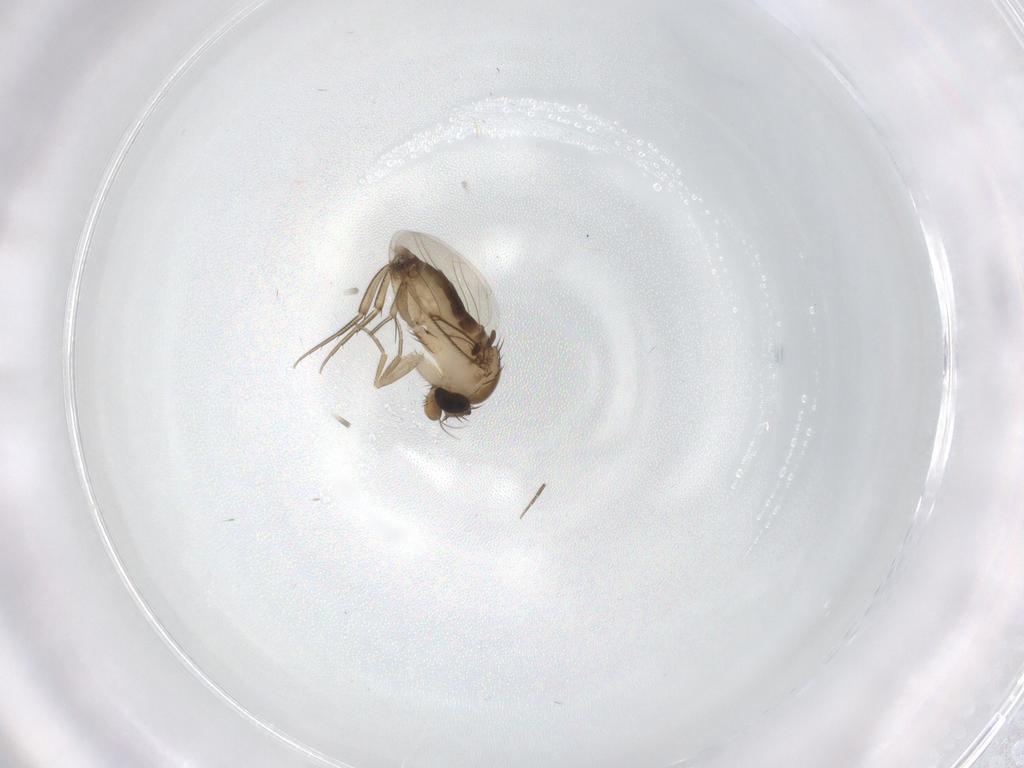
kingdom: Animalia
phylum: Arthropoda
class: Insecta
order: Diptera
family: Phoridae
